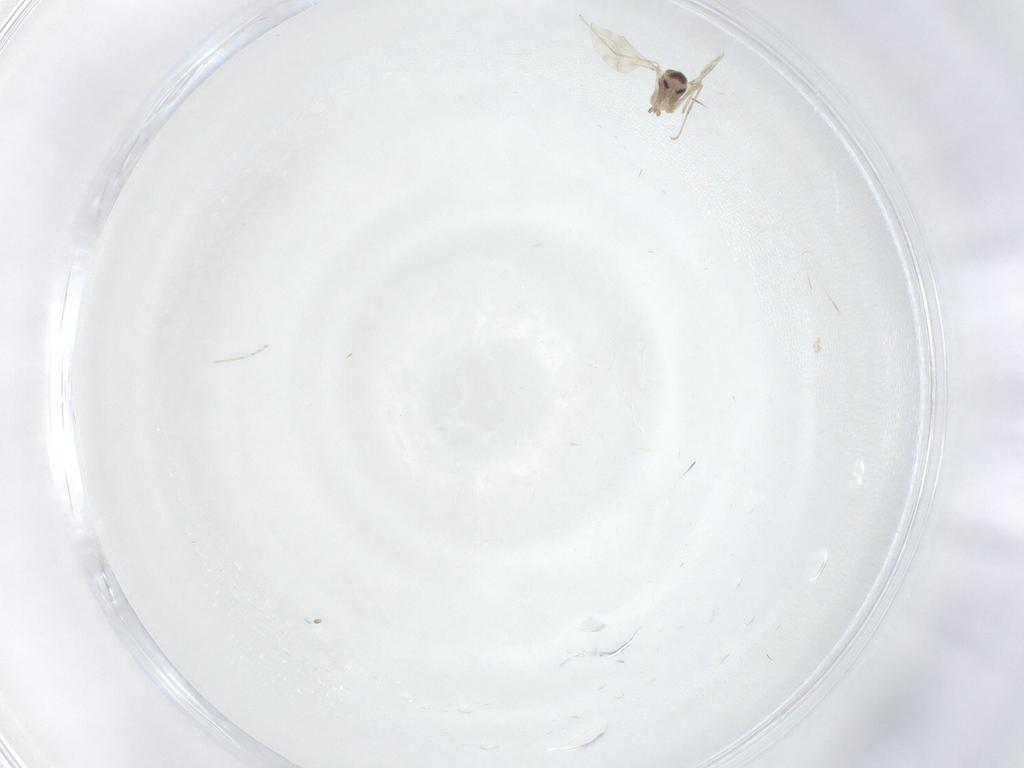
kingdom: Animalia
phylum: Arthropoda
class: Insecta
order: Diptera
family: Cecidomyiidae
